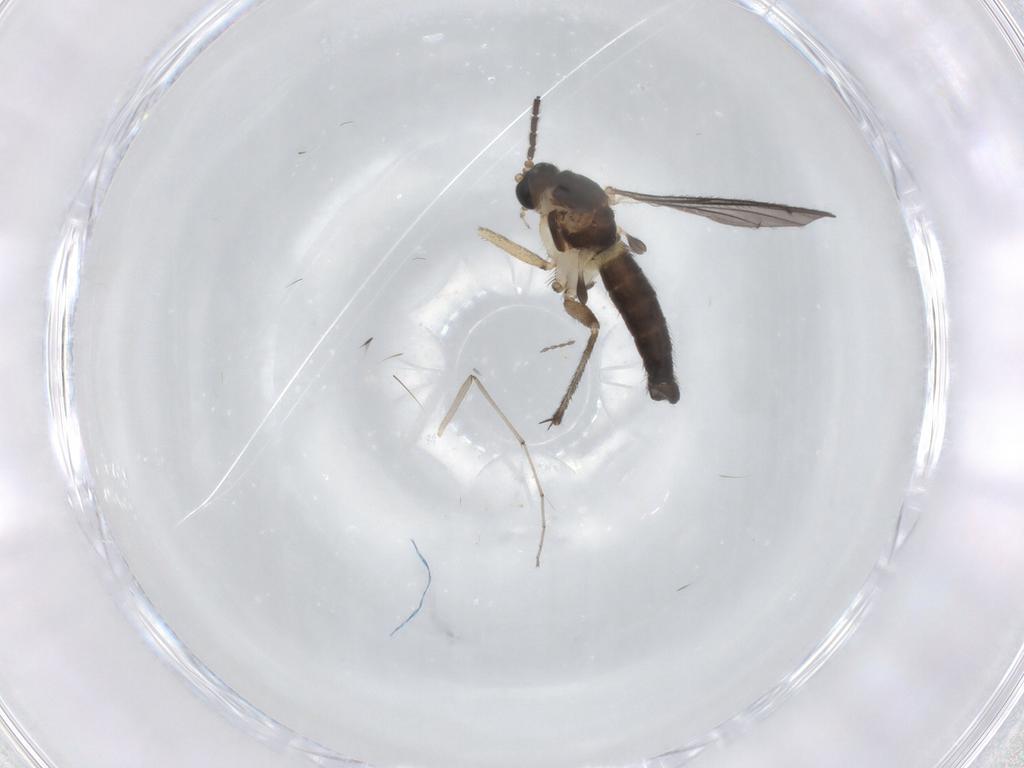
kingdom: Animalia
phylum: Arthropoda
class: Insecta
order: Diptera
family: Sciaridae
